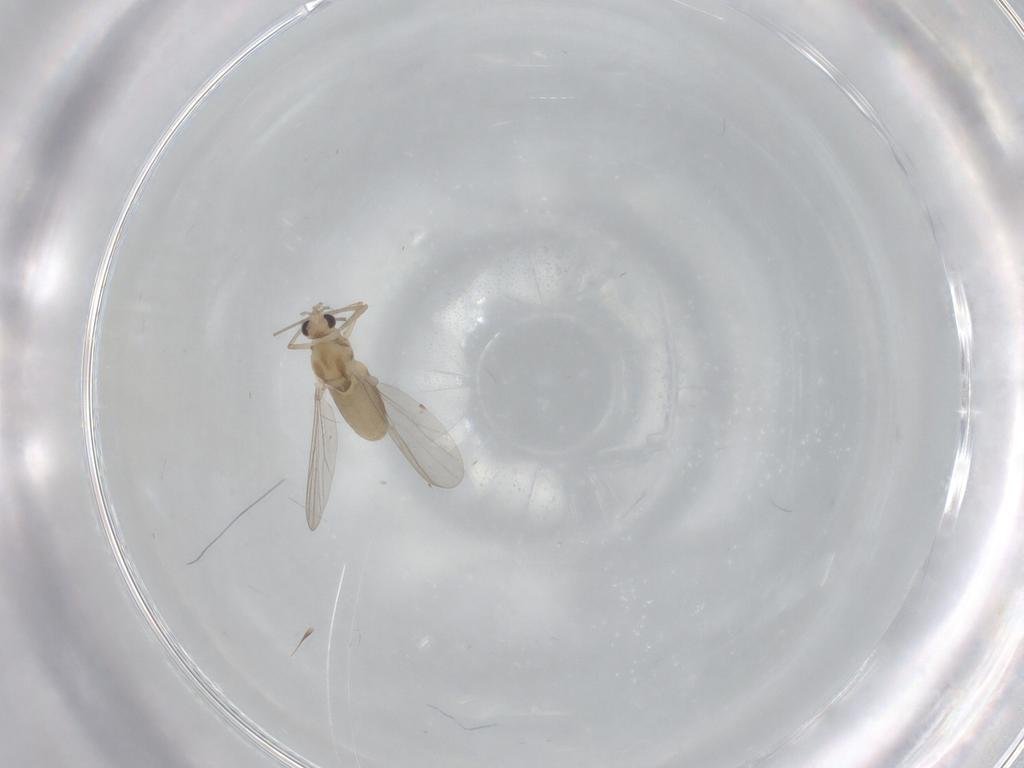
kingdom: Animalia
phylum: Arthropoda
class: Insecta
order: Diptera
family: Chironomidae
